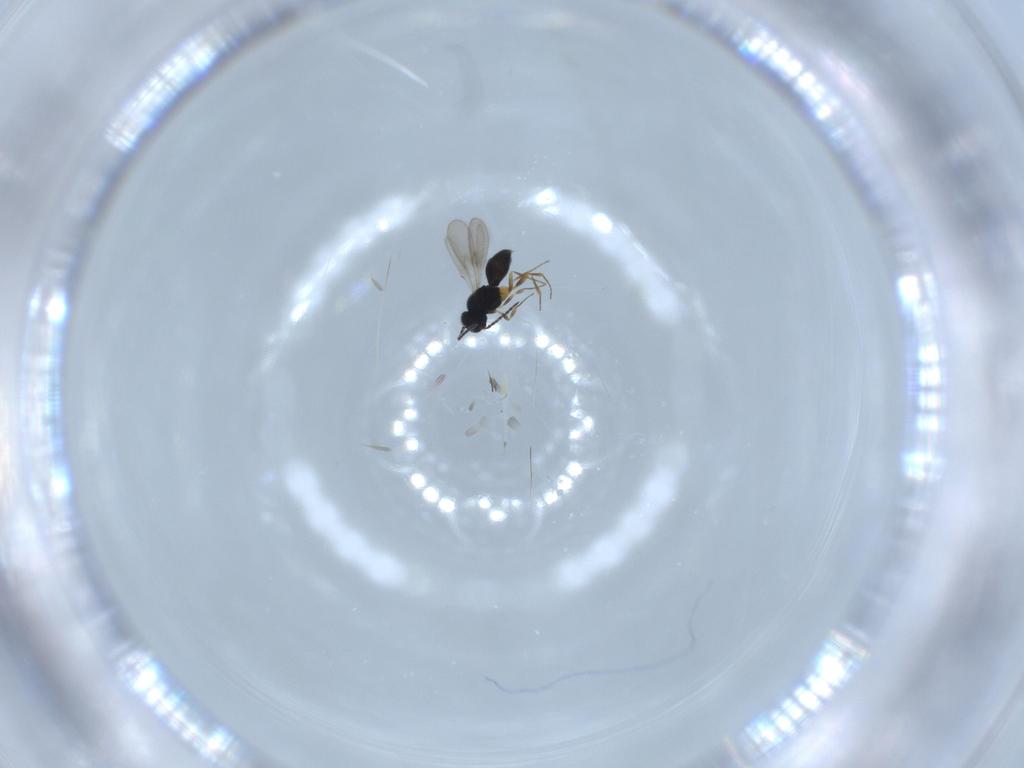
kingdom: Animalia
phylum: Arthropoda
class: Insecta
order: Hymenoptera
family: Scelionidae
